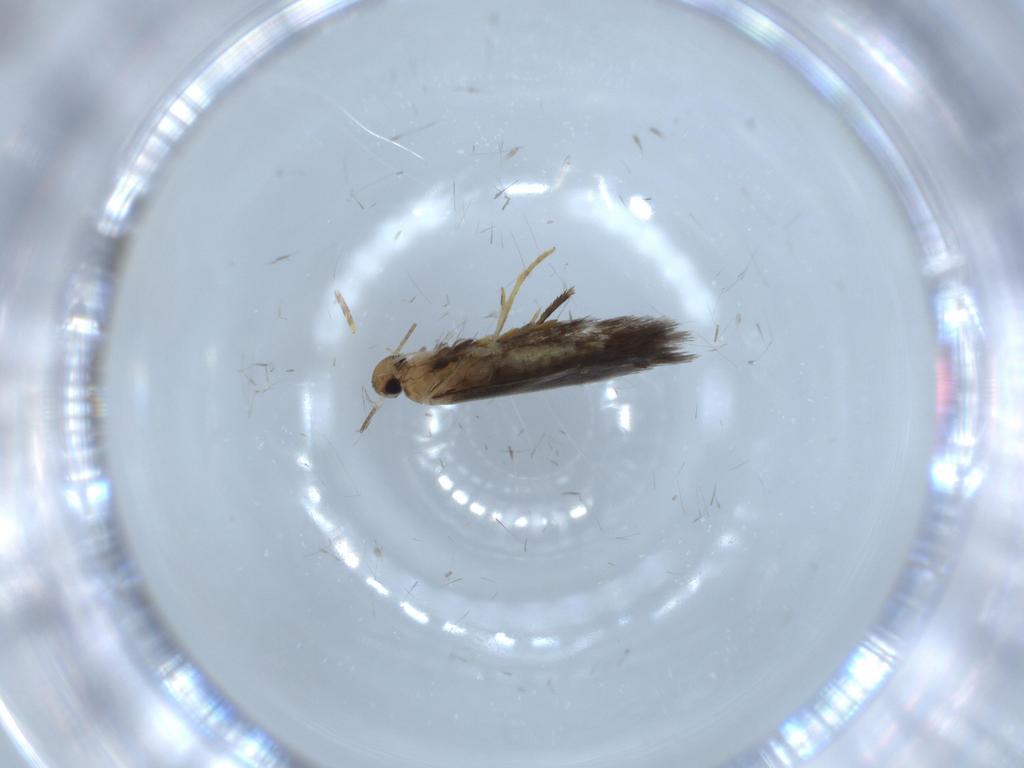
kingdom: Animalia
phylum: Arthropoda
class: Insecta
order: Lepidoptera
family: Heliozelidae
